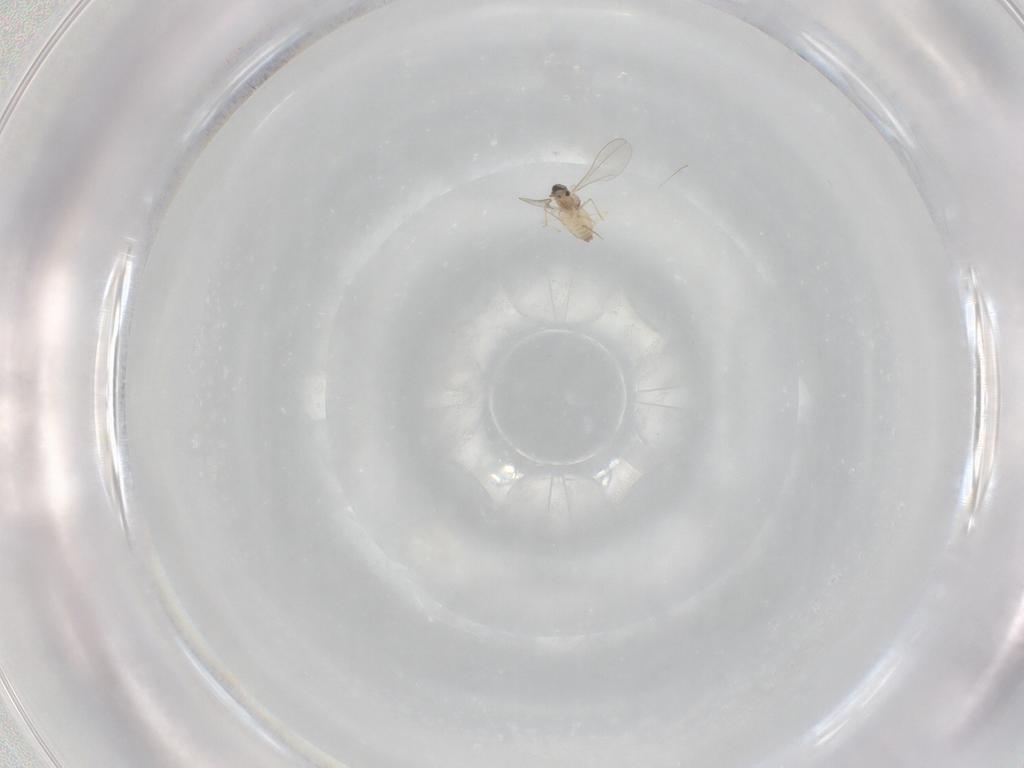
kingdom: Animalia
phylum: Arthropoda
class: Insecta
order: Diptera
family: Cecidomyiidae
